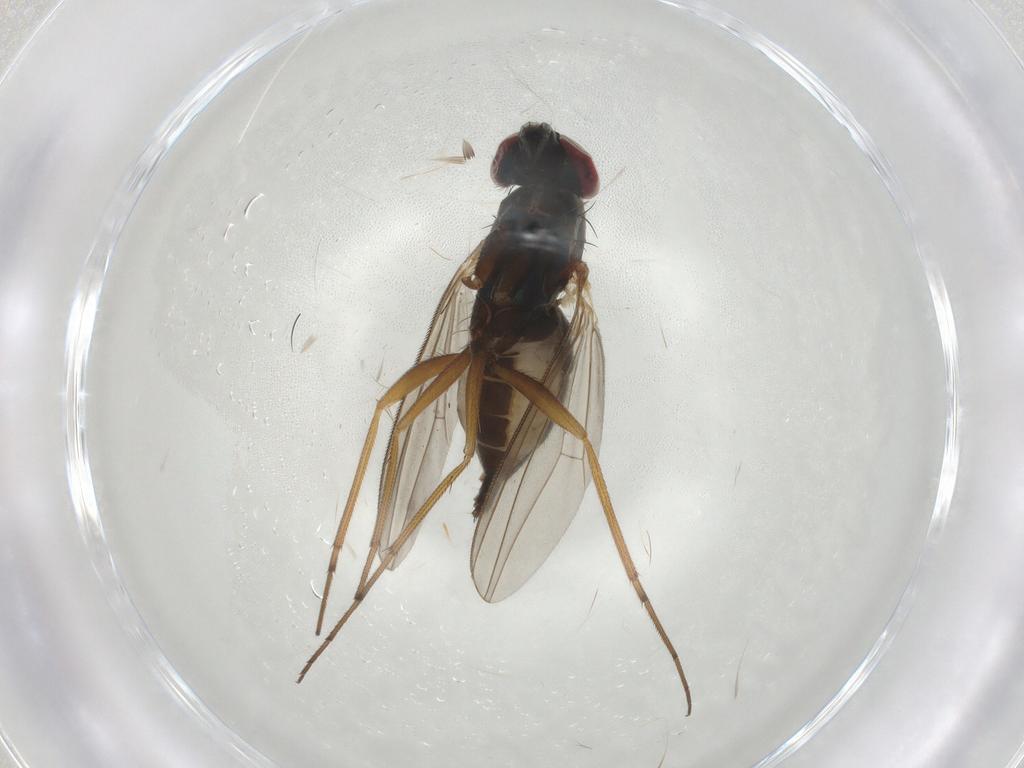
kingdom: Animalia
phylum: Arthropoda
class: Insecta
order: Diptera
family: Dolichopodidae
